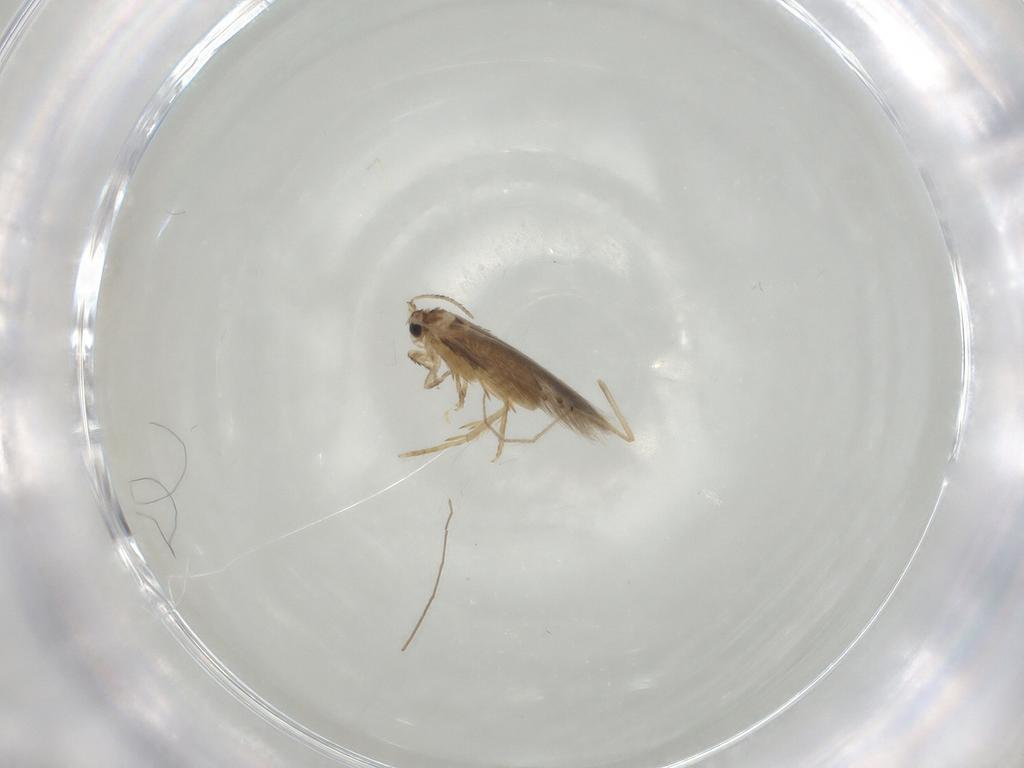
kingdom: Animalia
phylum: Arthropoda
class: Insecta
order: Lepidoptera
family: Nepticulidae
